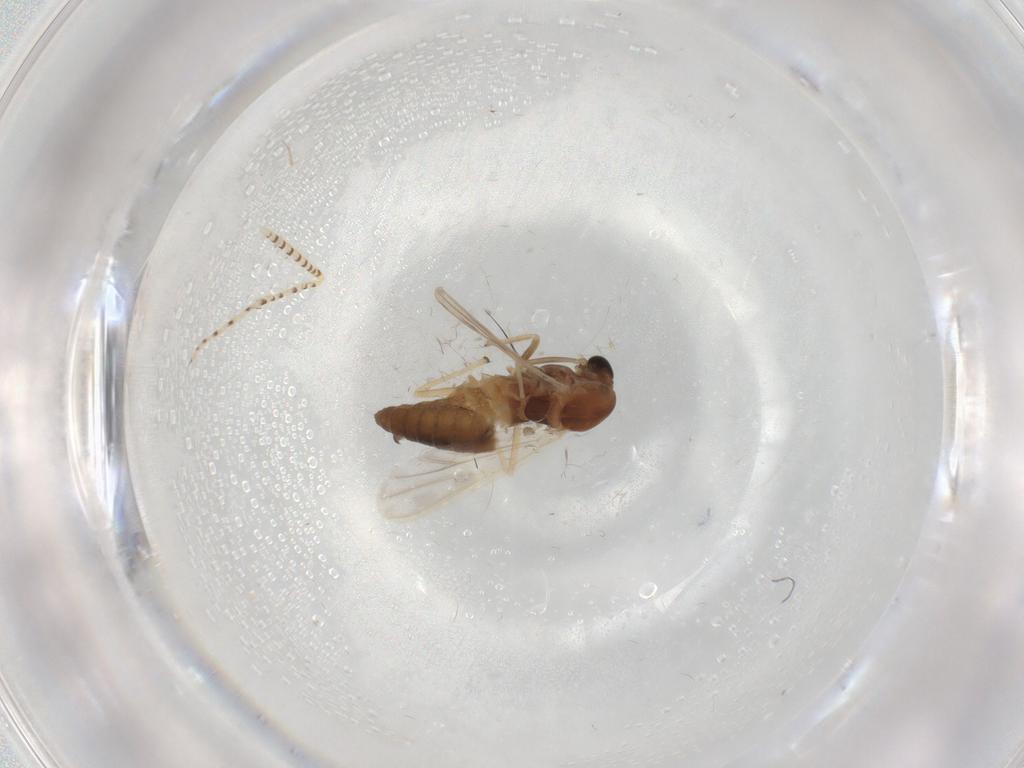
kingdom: Animalia
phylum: Arthropoda
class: Insecta
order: Diptera
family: Chironomidae
